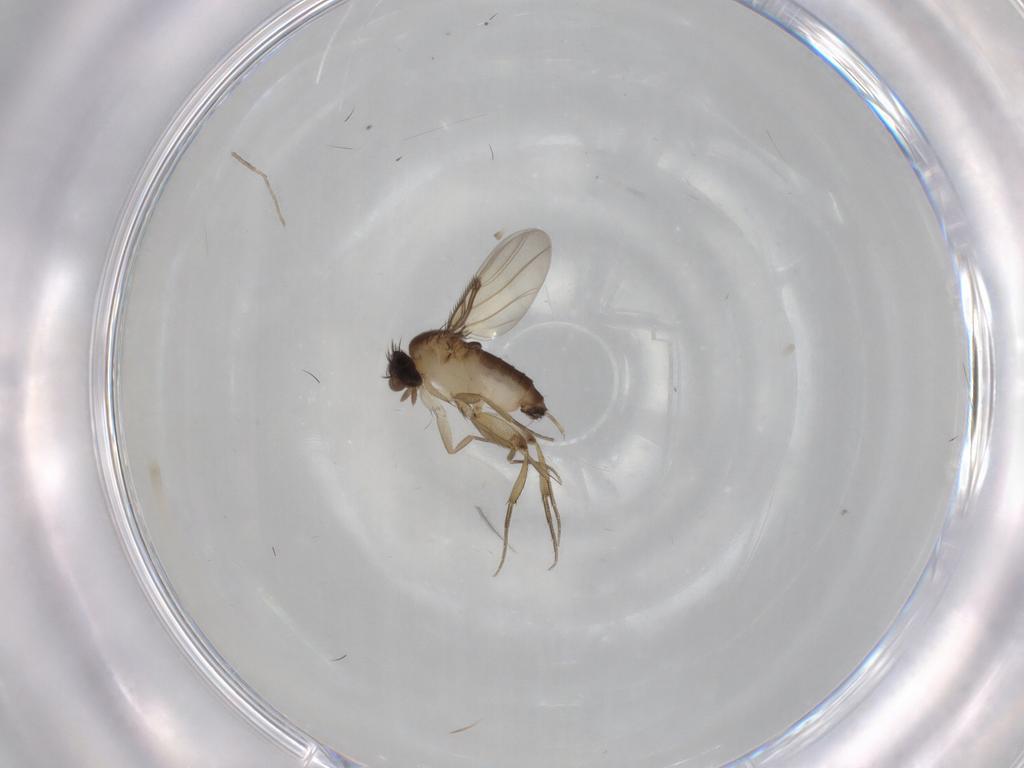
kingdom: Animalia
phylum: Arthropoda
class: Insecta
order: Diptera
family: Phoridae
